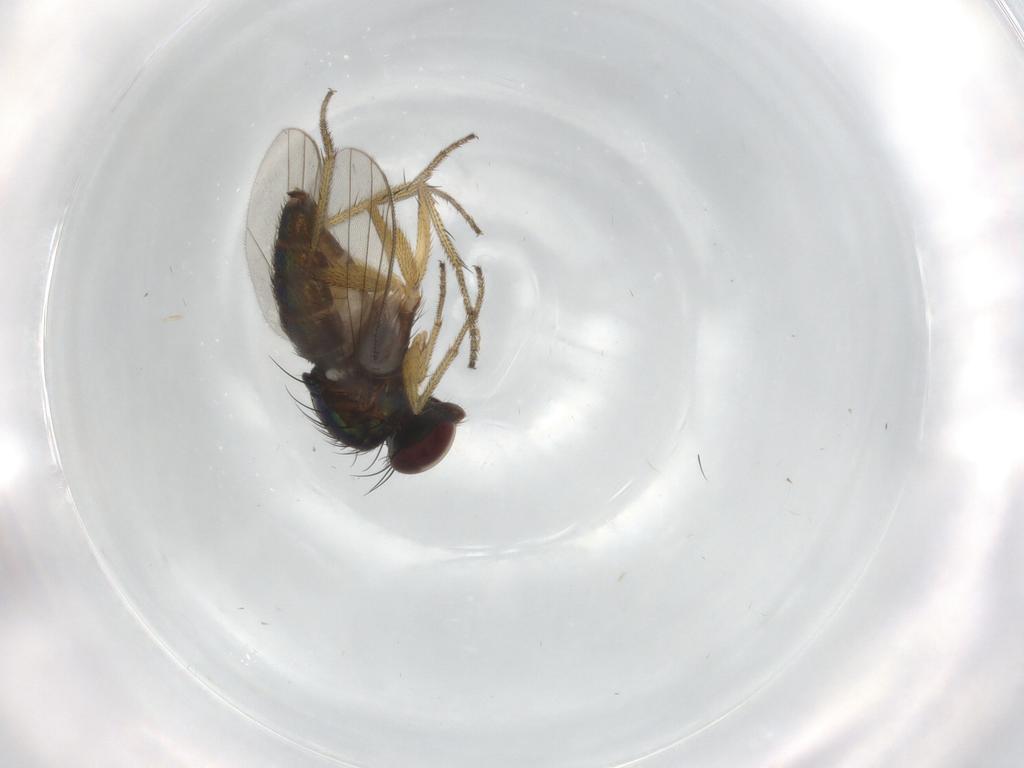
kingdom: Animalia
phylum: Arthropoda
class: Insecta
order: Diptera
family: Dolichopodidae
